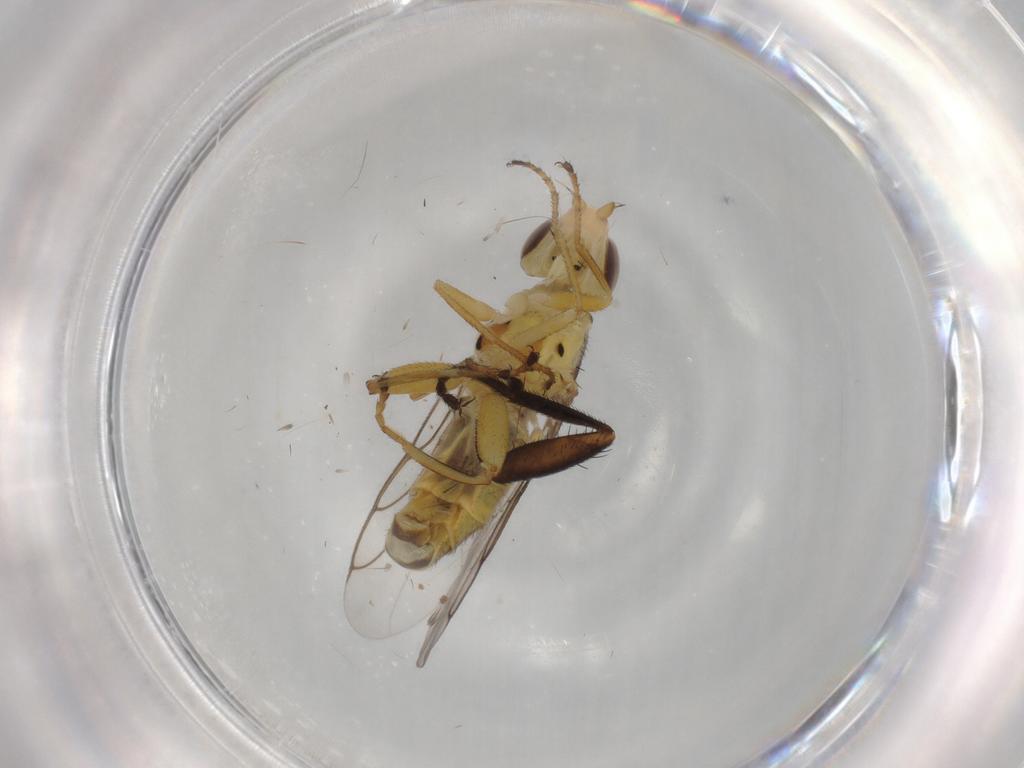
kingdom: Animalia
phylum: Arthropoda
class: Insecta
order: Diptera
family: Chloropidae
